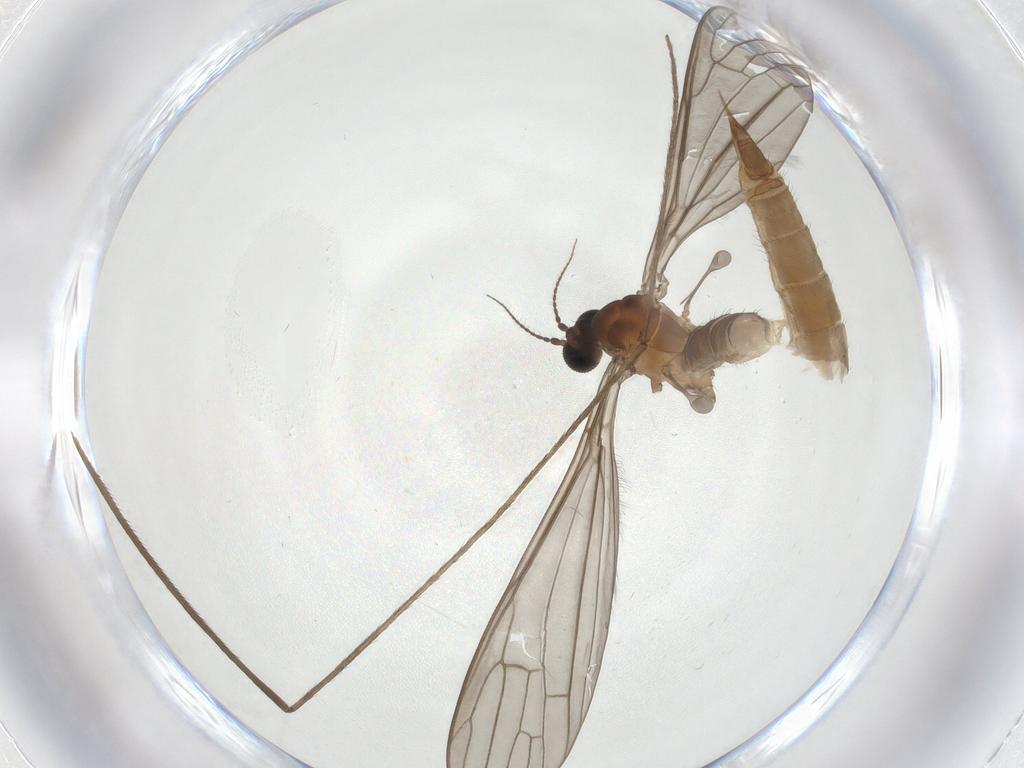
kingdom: Animalia
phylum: Arthropoda
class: Insecta
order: Diptera
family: Limoniidae
